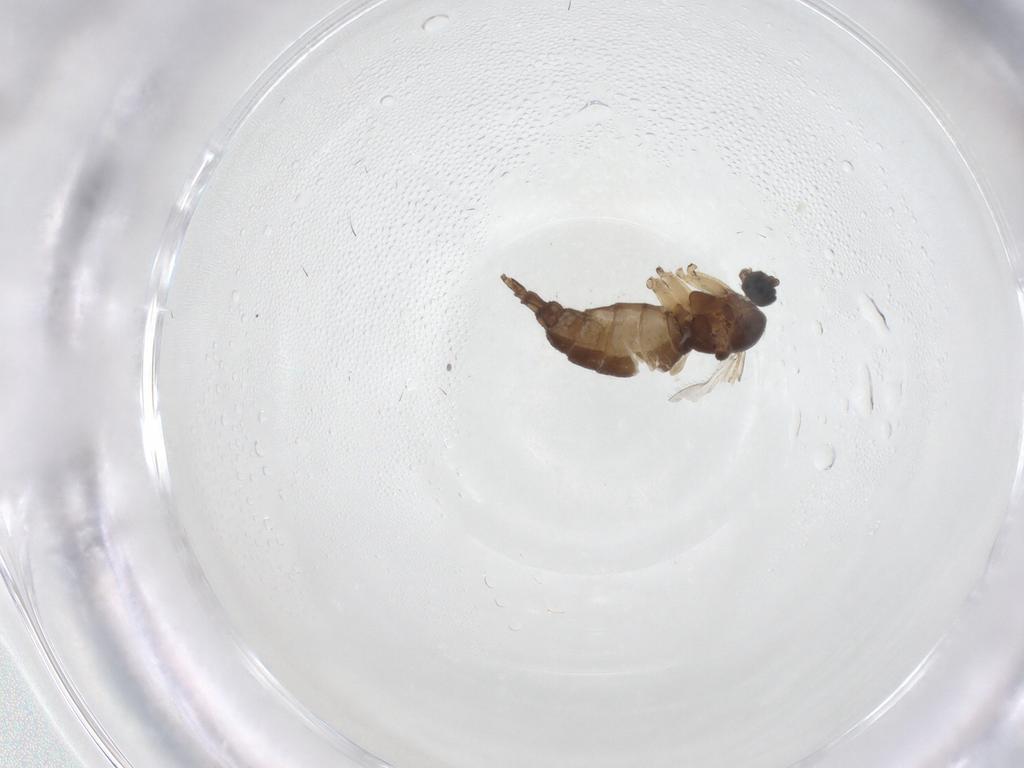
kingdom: Animalia
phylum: Arthropoda
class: Insecta
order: Diptera
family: Sciaridae
